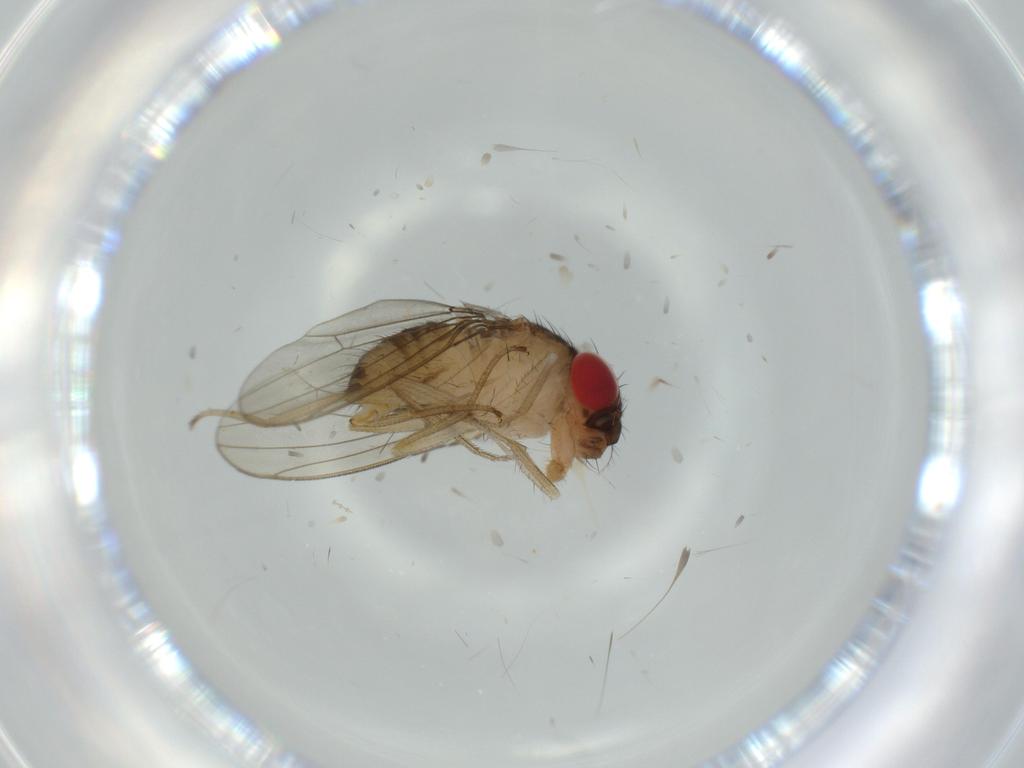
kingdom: Animalia
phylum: Arthropoda
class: Insecta
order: Diptera
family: Drosophilidae
